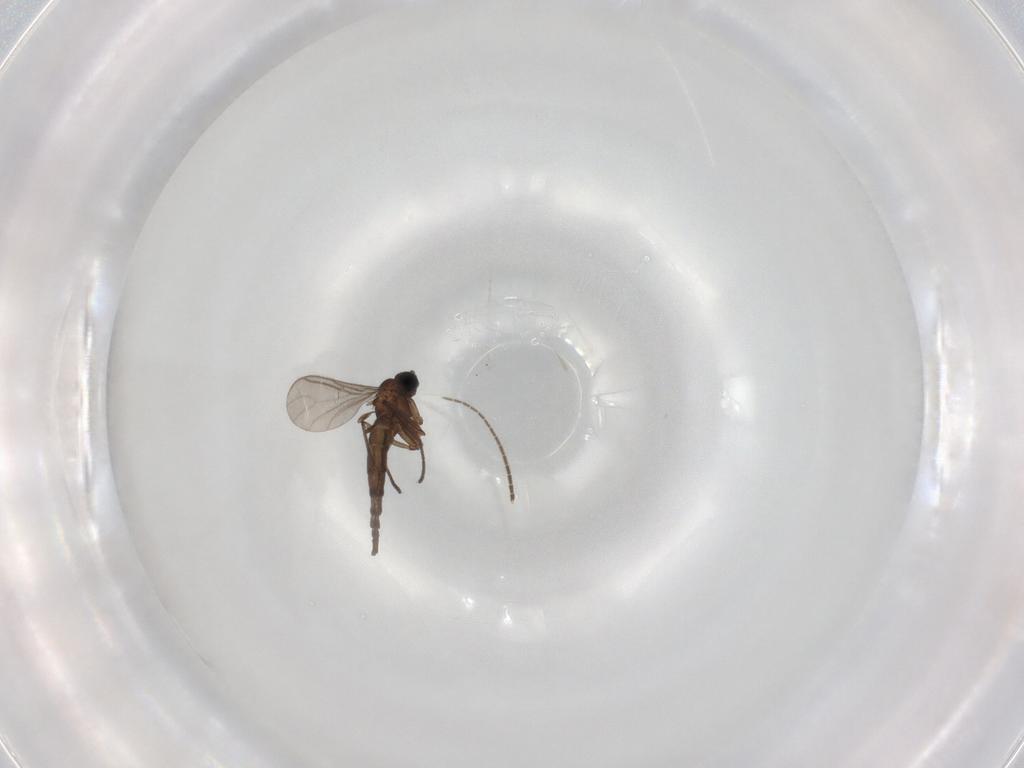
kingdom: Animalia
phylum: Arthropoda
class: Insecta
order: Diptera
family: Sciaridae
